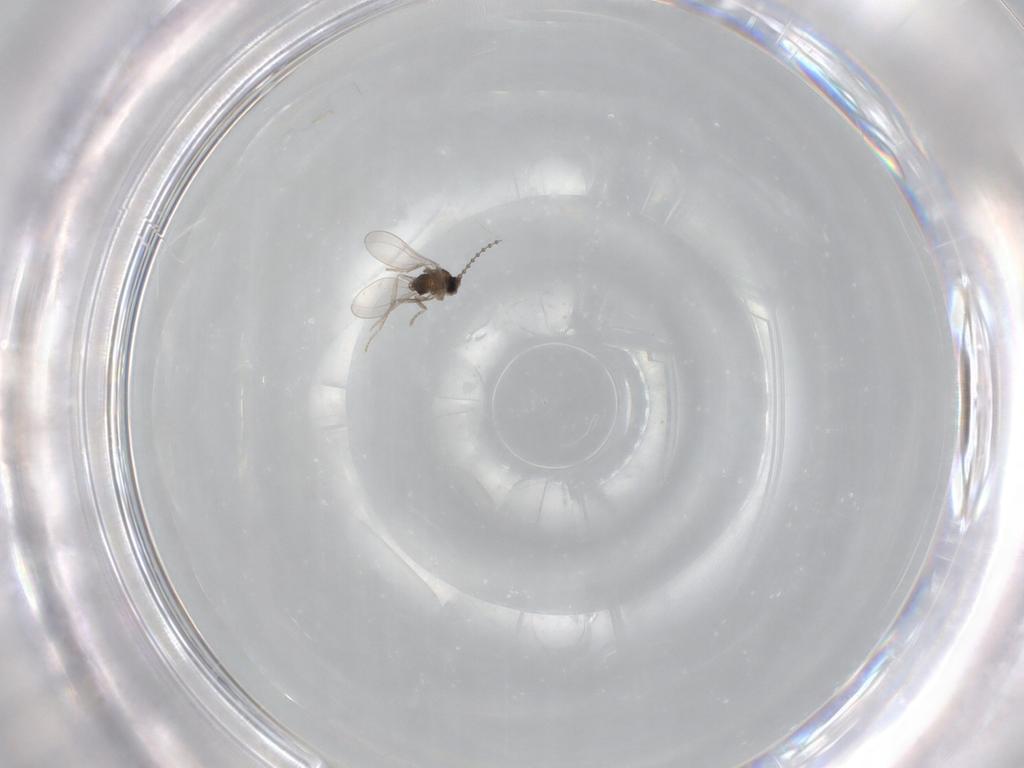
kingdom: Animalia
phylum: Arthropoda
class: Insecta
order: Diptera
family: Cecidomyiidae
